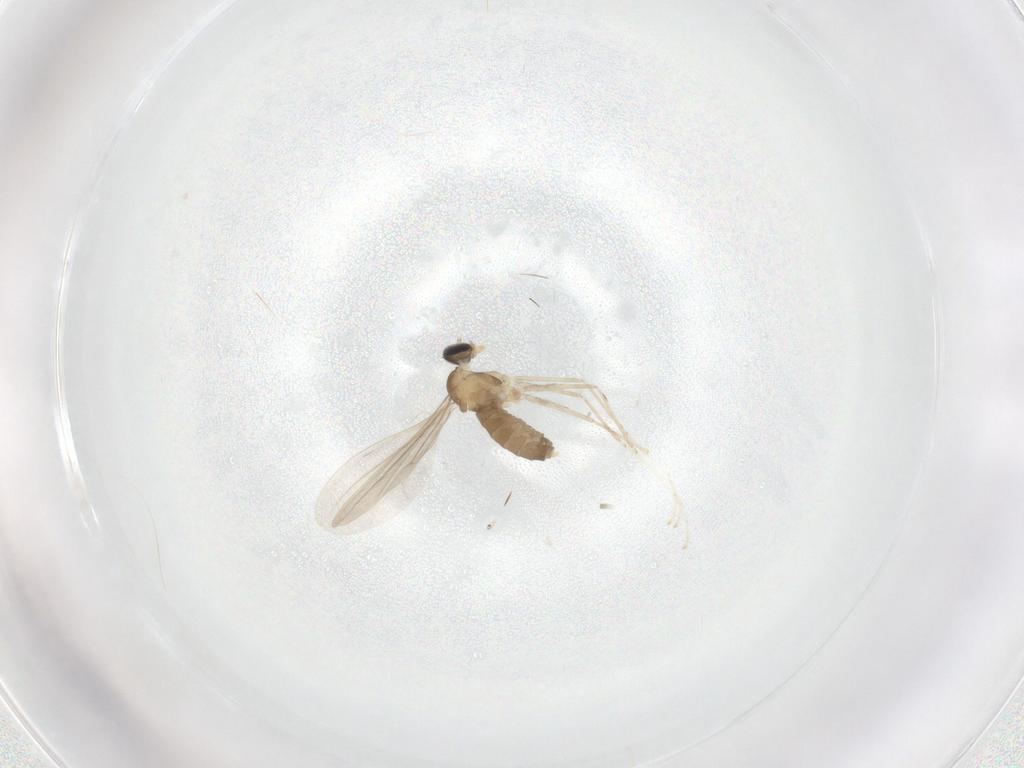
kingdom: Animalia
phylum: Arthropoda
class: Insecta
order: Diptera
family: Cecidomyiidae
